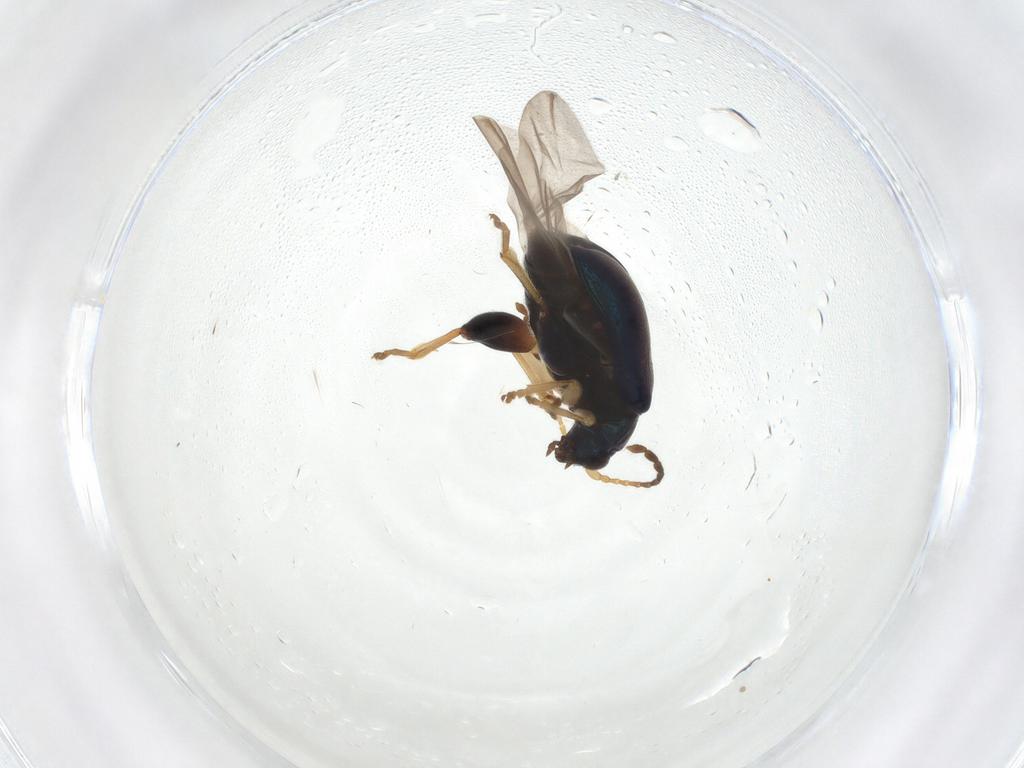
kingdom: Animalia
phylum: Arthropoda
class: Insecta
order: Coleoptera
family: Chrysomelidae
